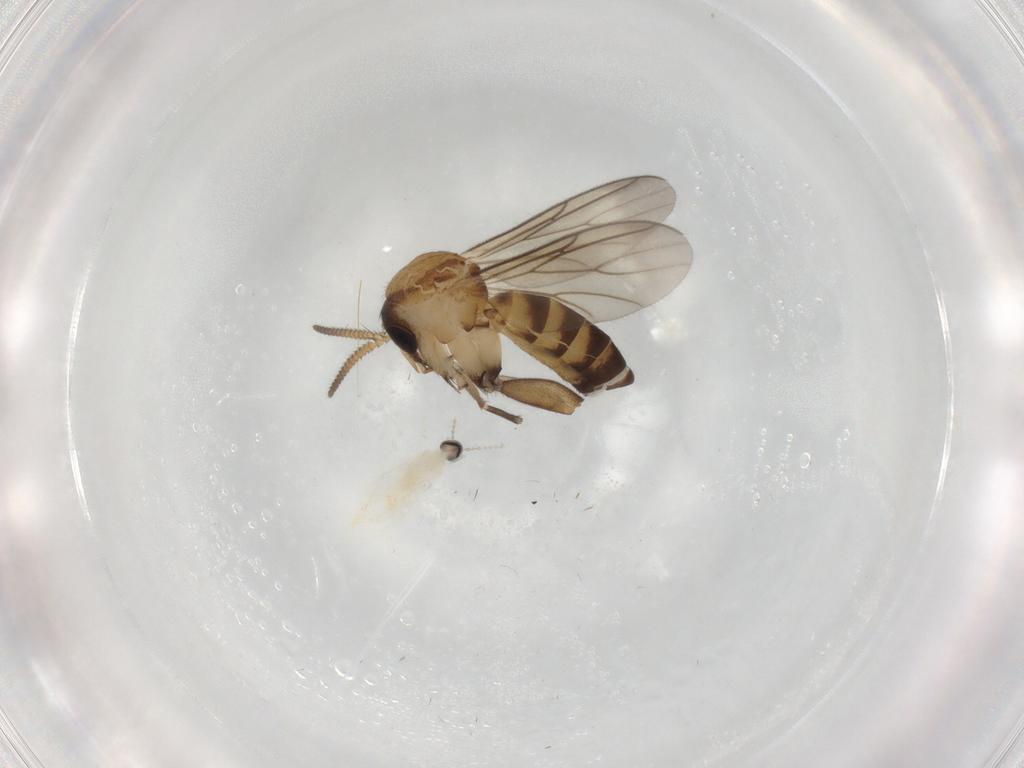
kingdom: Animalia
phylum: Arthropoda
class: Insecta
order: Diptera
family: Mycetophilidae
